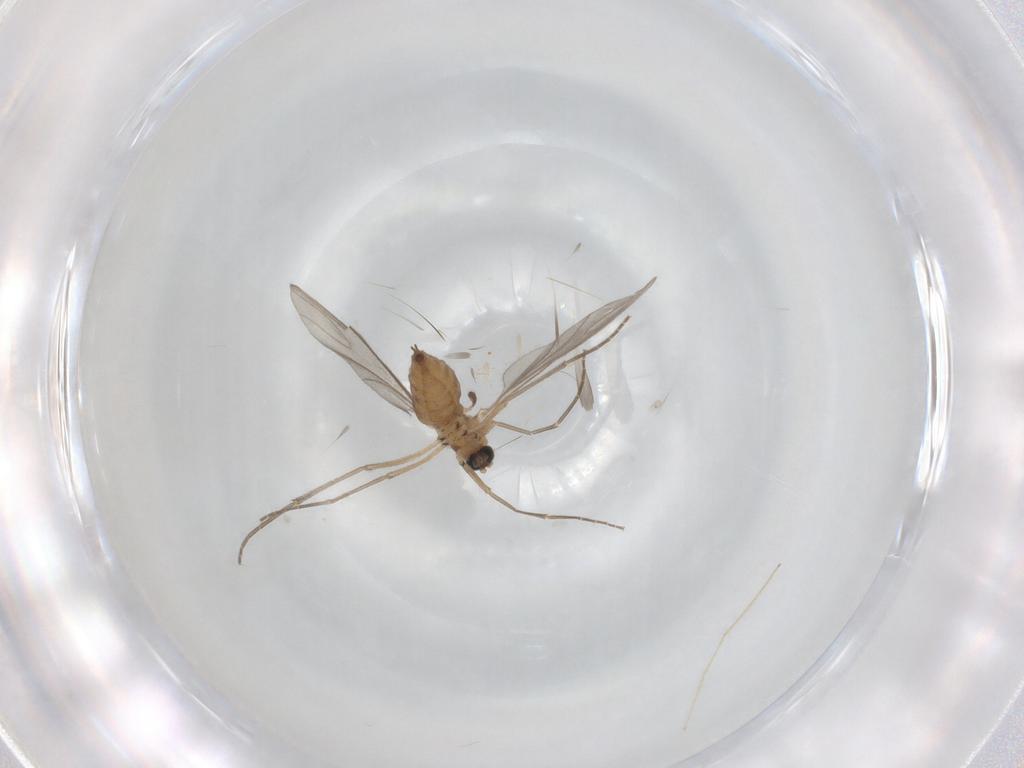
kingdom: Animalia
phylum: Arthropoda
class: Insecta
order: Diptera
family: Sciaridae
